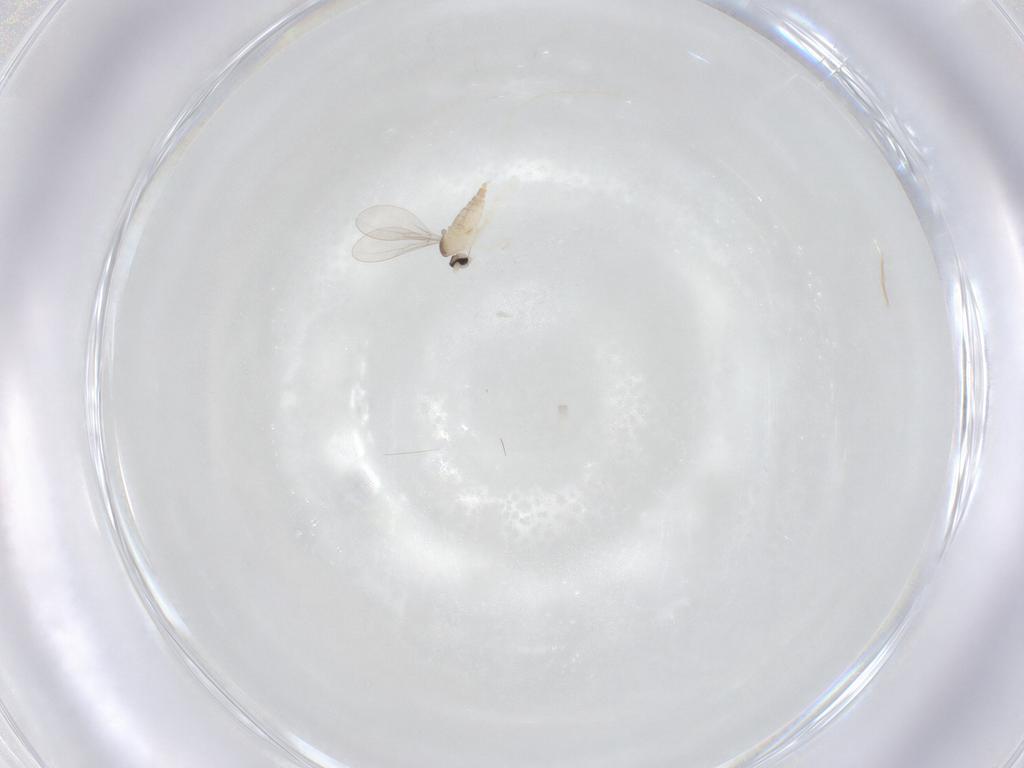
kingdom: Animalia
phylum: Arthropoda
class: Insecta
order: Diptera
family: Cecidomyiidae
